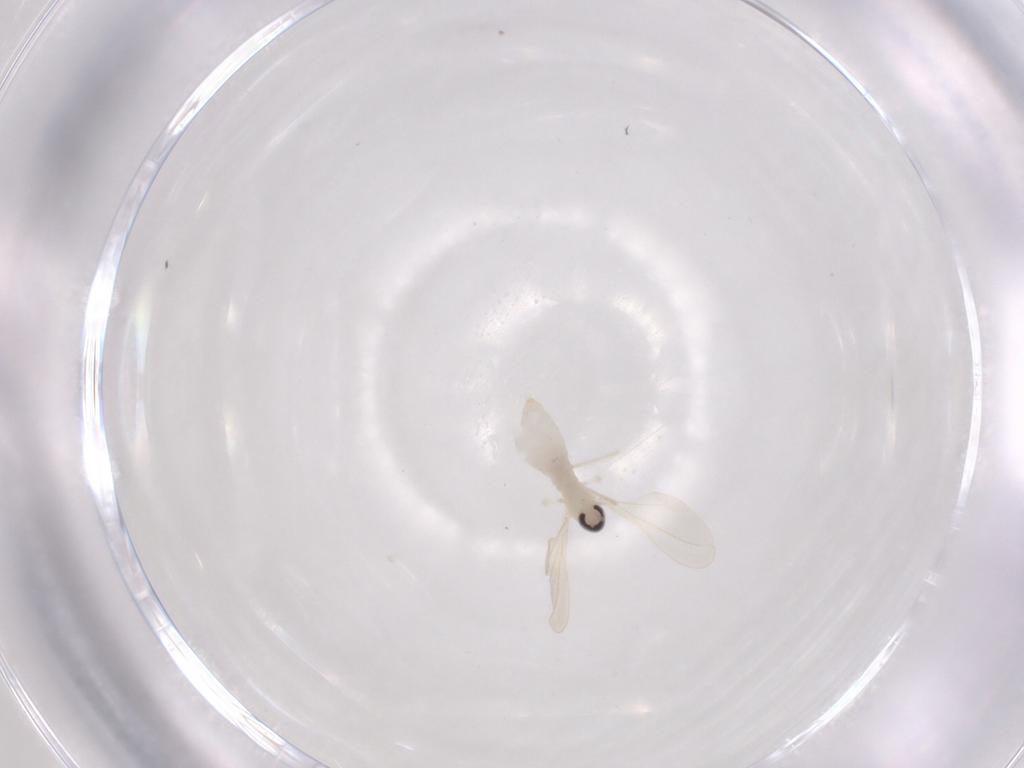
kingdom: Animalia
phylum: Arthropoda
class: Insecta
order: Diptera
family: Cecidomyiidae
